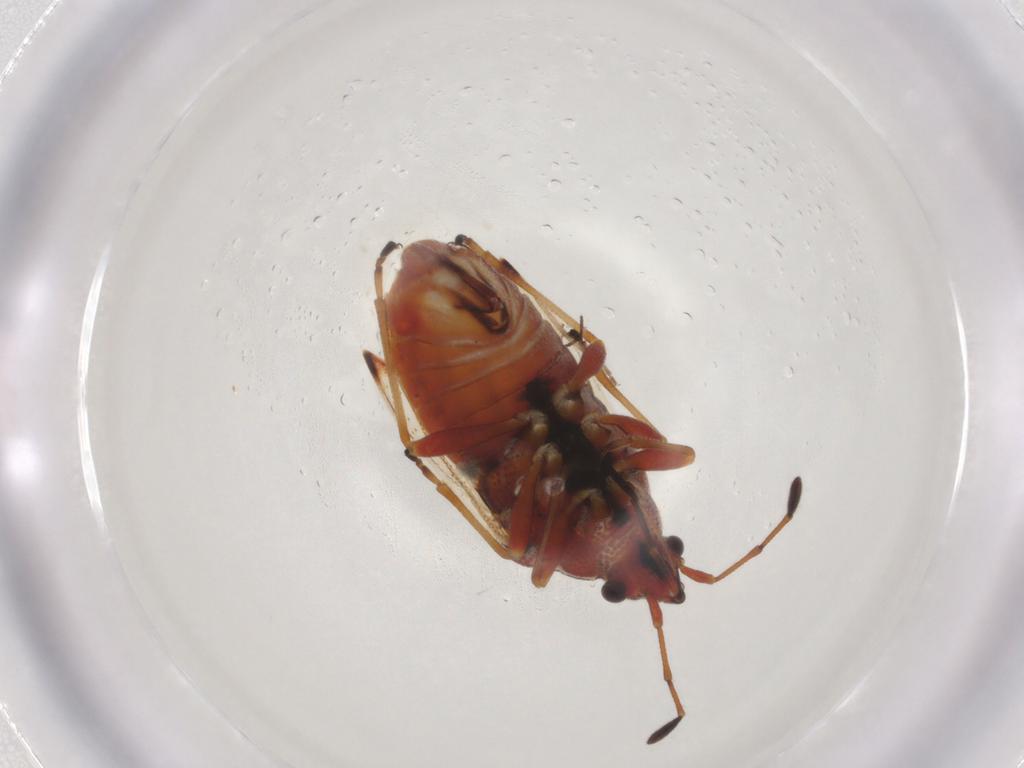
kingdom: Animalia
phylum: Arthropoda
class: Insecta
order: Hemiptera
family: Lygaeidae
